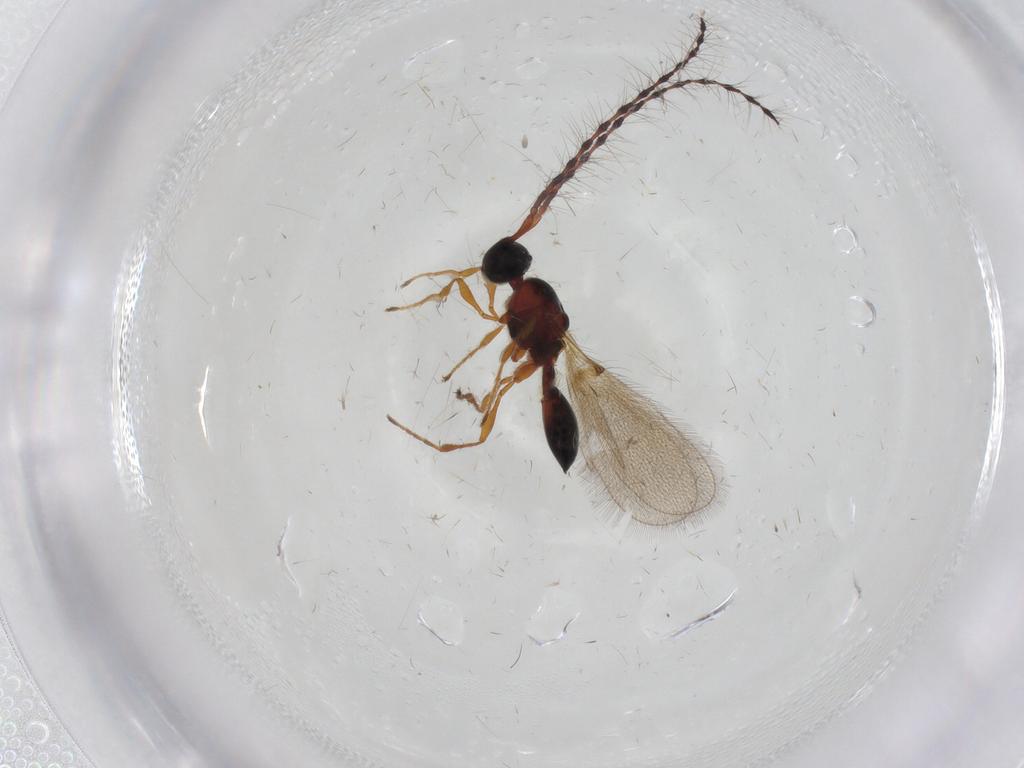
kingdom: Animalia
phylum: Arthropoda
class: Insecta
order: Hymenoptera
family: Diapriidae
